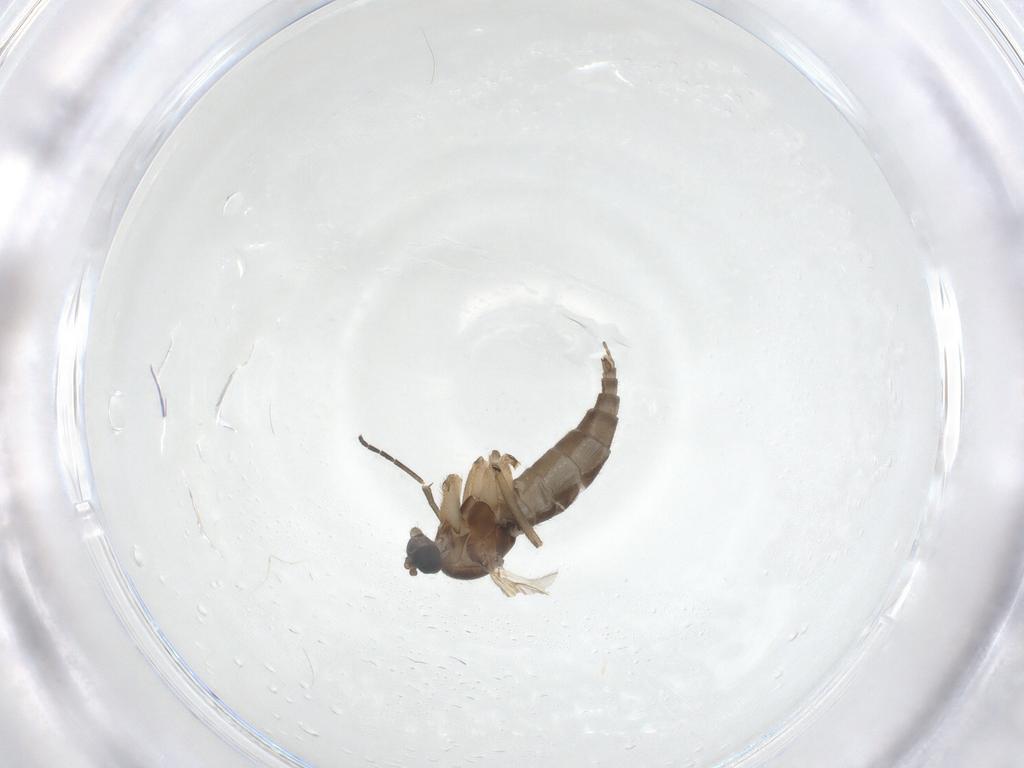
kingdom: Animalia
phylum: Arthropoda
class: Insecta
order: Diptera
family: Sciaridae
